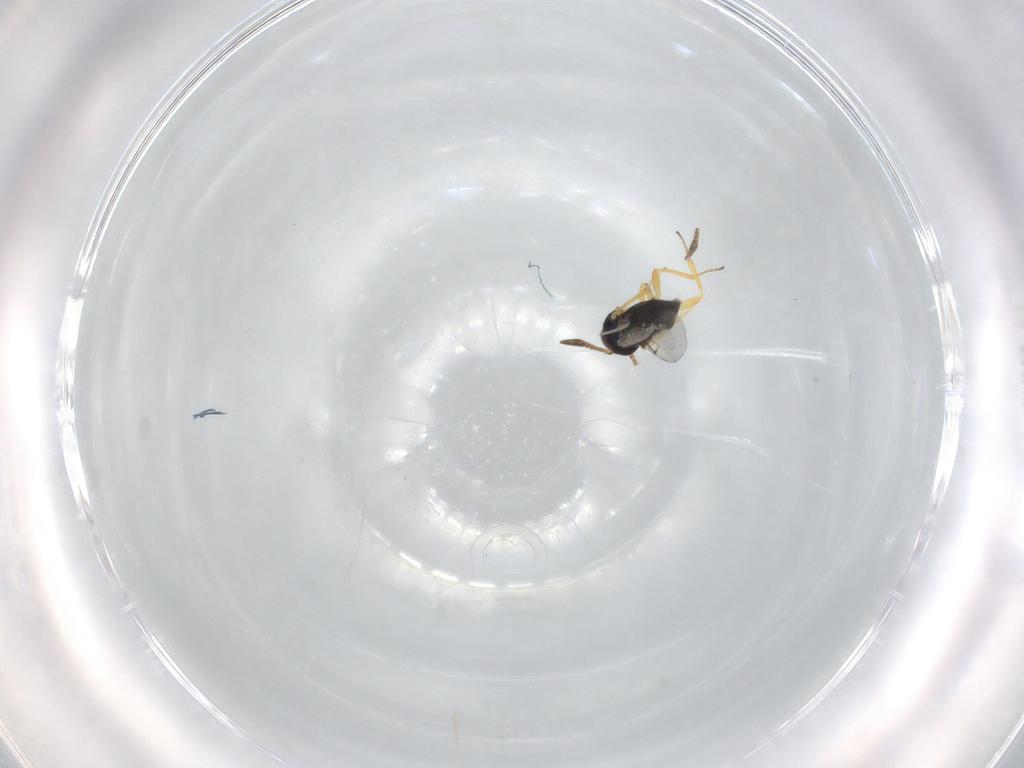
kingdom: Animalia
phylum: Arthropoda
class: Insecta
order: Hymenoptera
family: Encyrtidae
